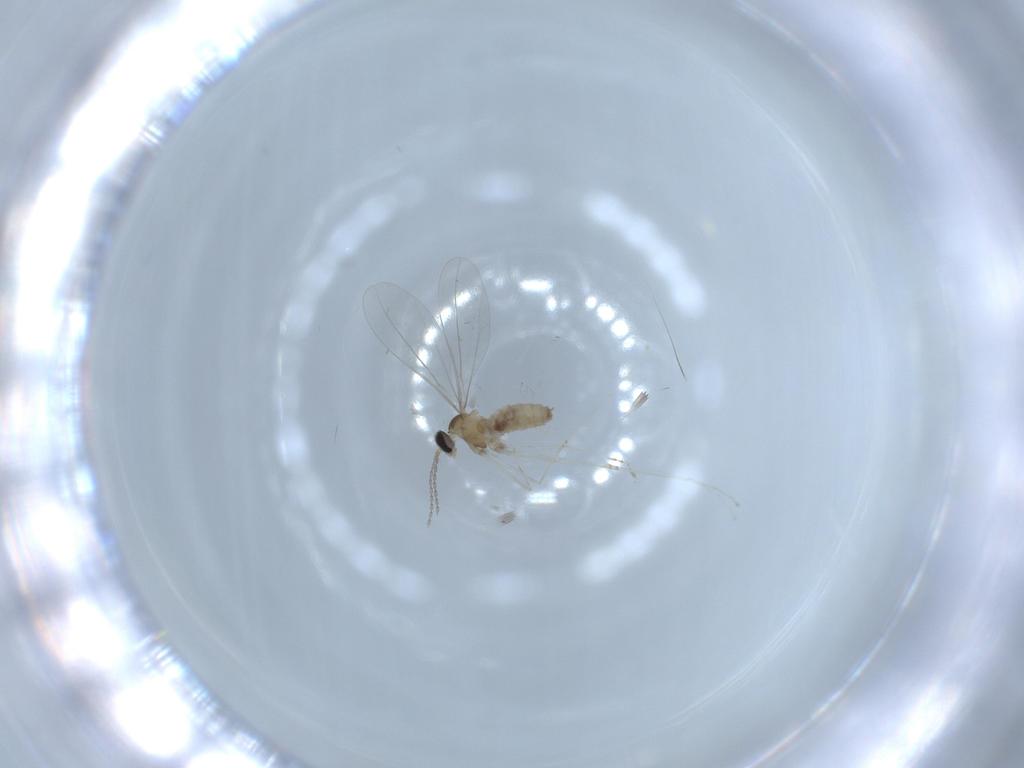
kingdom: Animalia
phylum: Arthropoda
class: Insecta
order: Diptera
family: Cecidomyiidae
